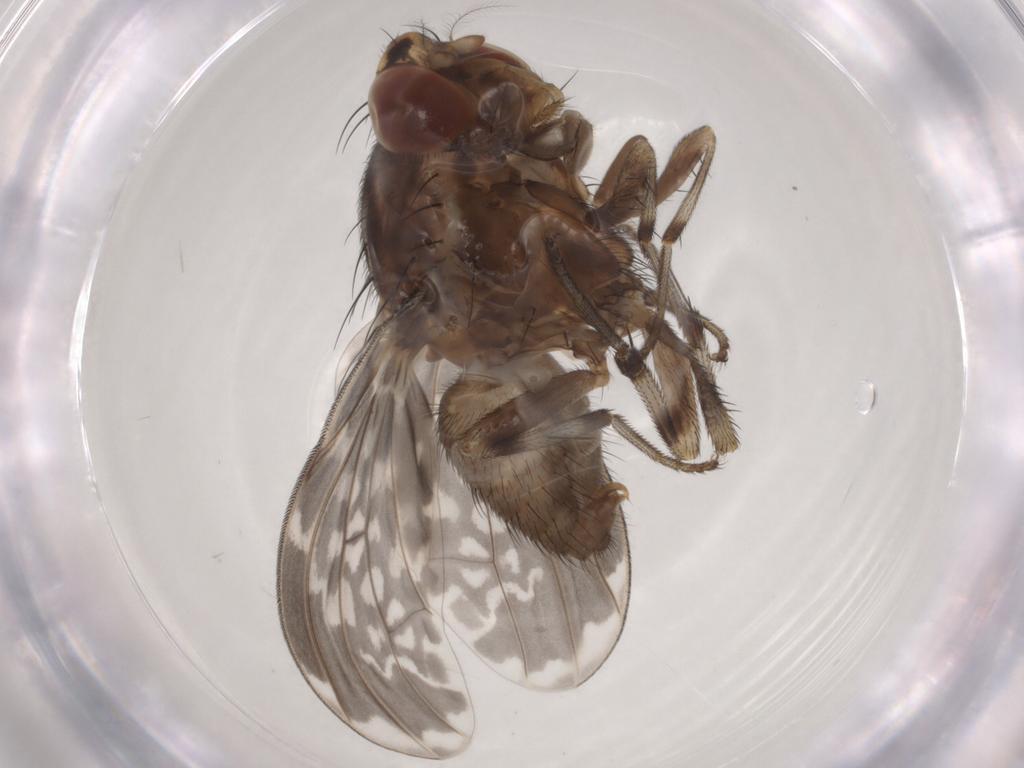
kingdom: Animalia
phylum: Arthropoda
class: Insecta
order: Diptera
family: Lauxaniidae
